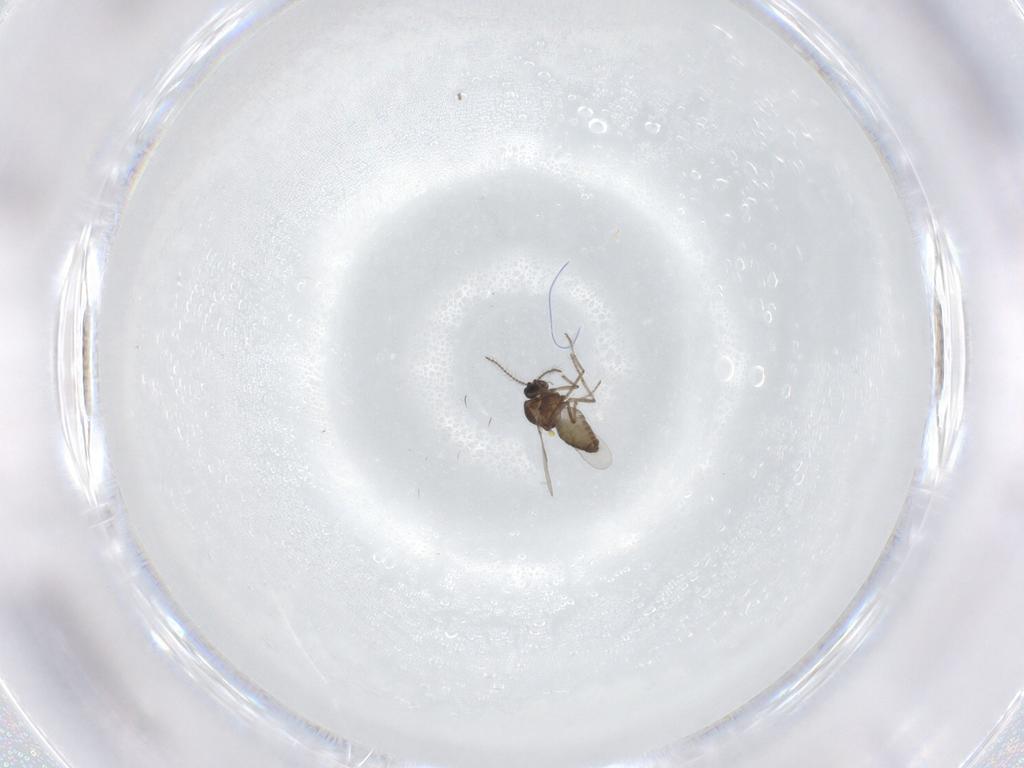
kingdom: Animalia
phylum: Arthropoda
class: Insecta
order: Diptera
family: Ceratopogonidae
